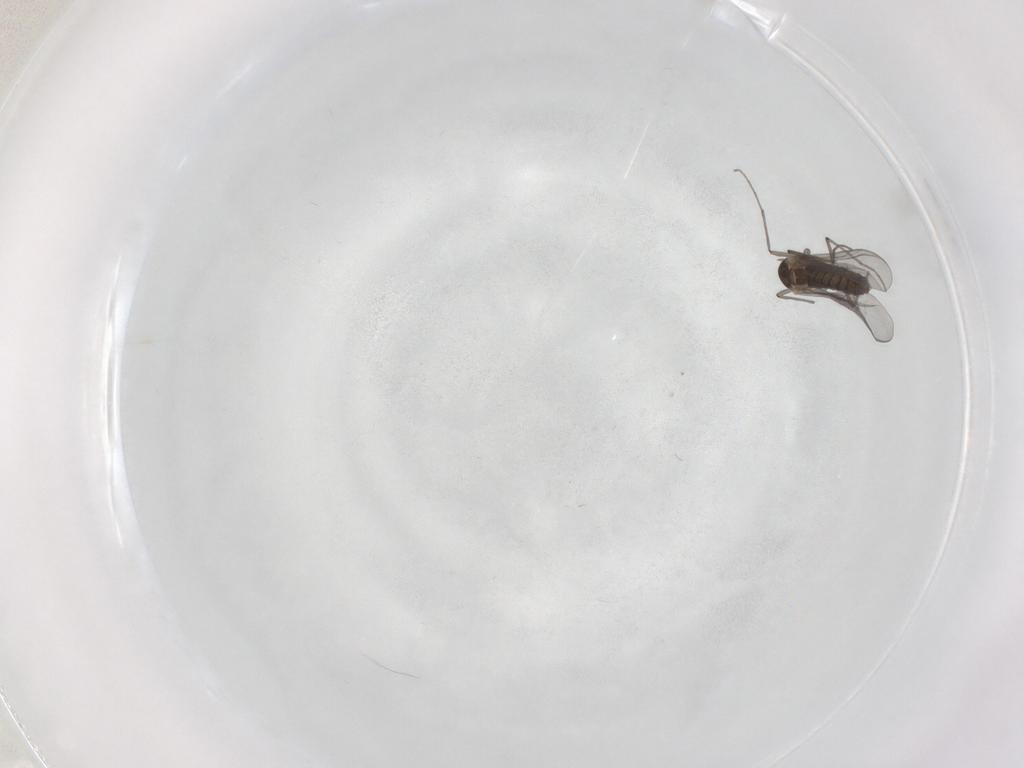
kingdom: Animalia
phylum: Arthropoda
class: Insecta
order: Diptera
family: Chironomidae
